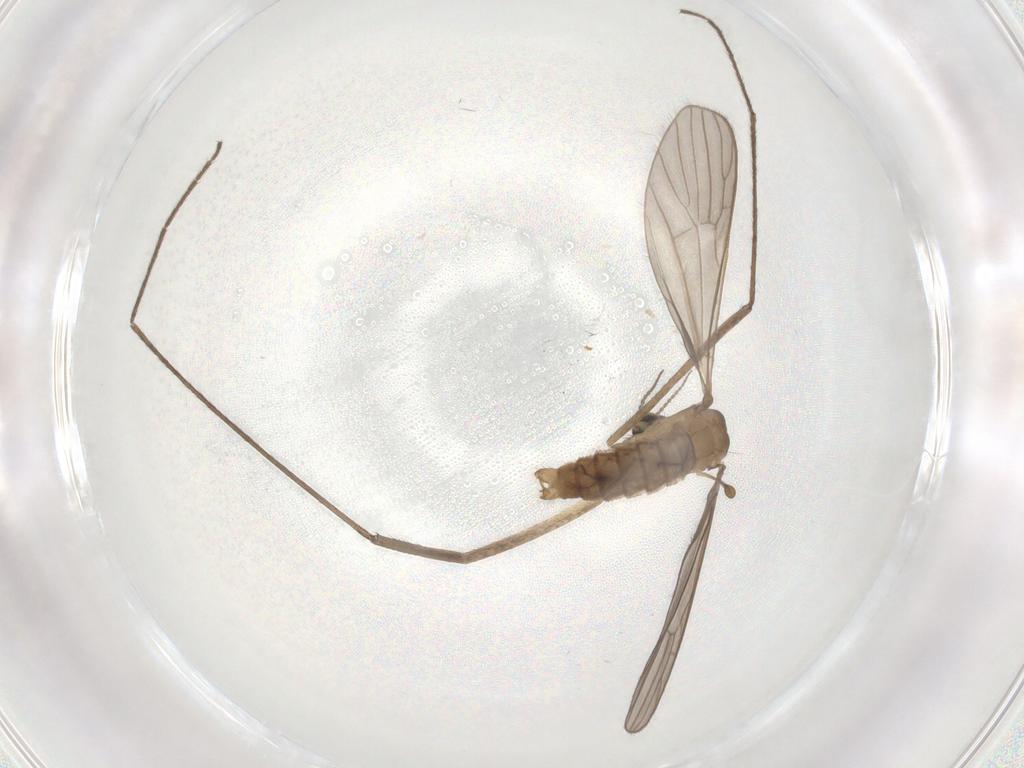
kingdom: Animalia
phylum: Arthropoda
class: Insecta
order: Diptera
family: Limoniidae
